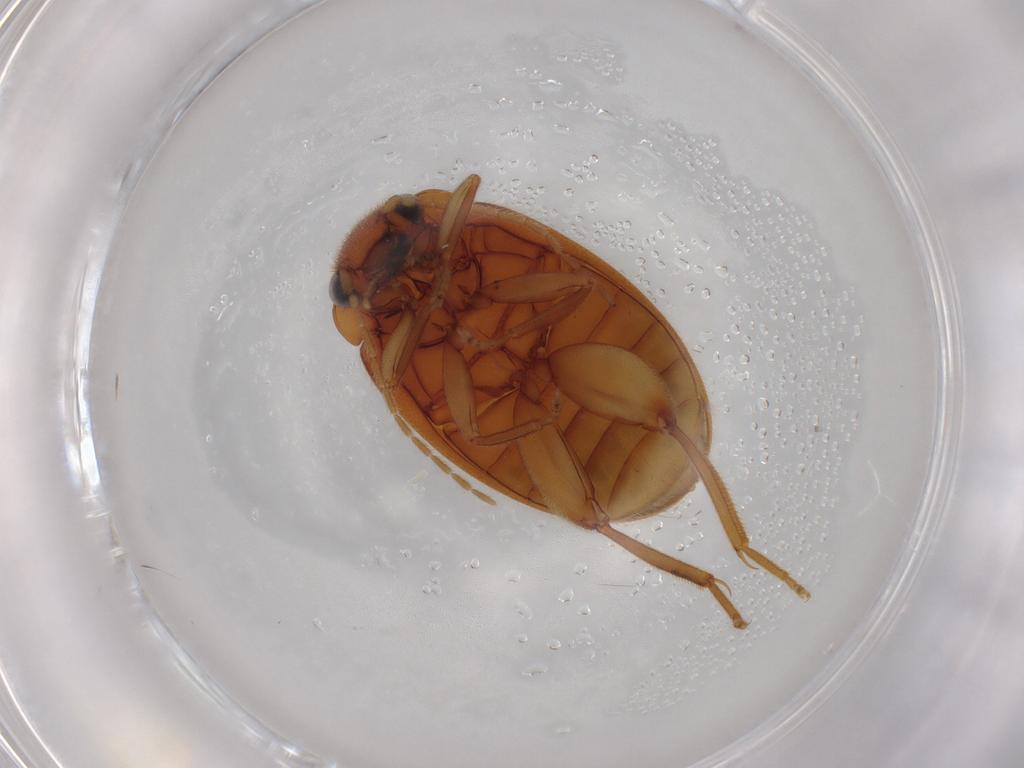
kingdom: Animalia
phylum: Arthropoda
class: Insecta
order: Coleoptera
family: Scirtidae
